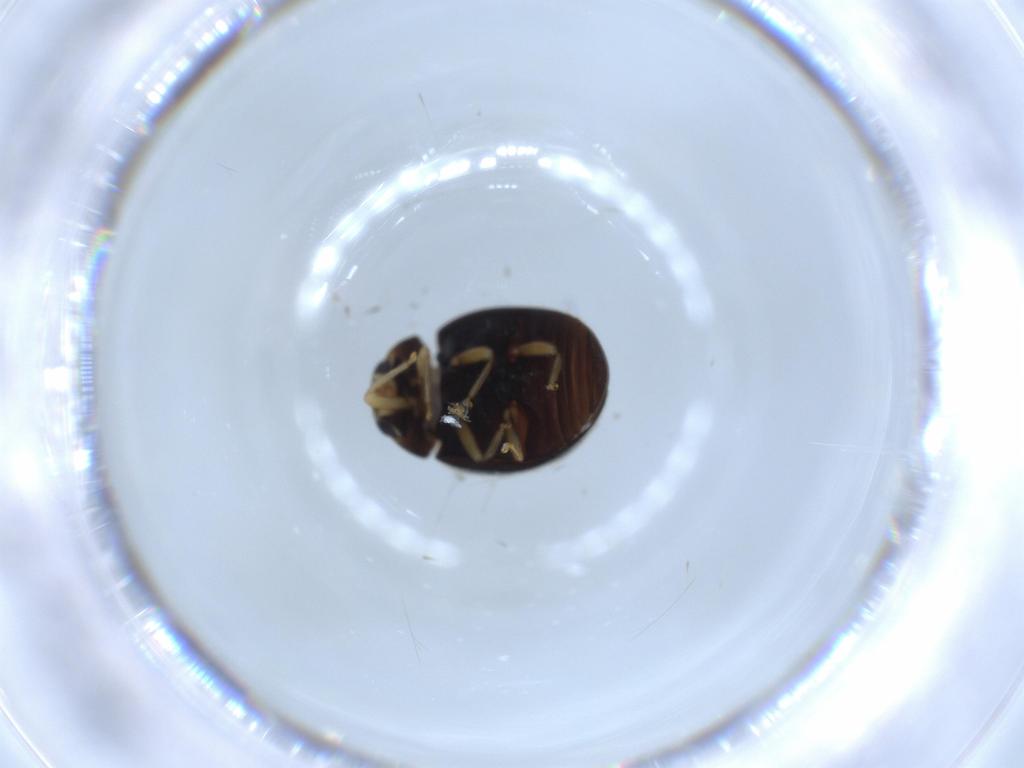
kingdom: Animalia
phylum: Arthropoda
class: Insecta
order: Coleoptera
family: Coccinellidae
